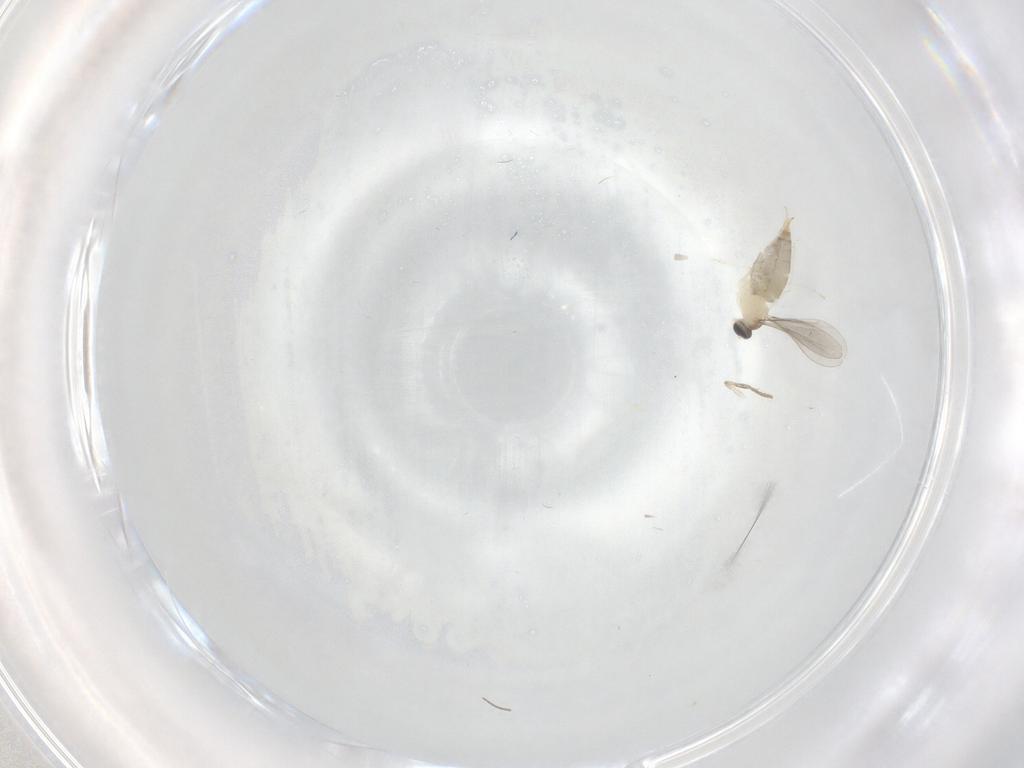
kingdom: Animalia
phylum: Arthropoda
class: Insecta
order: Diptera
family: Cecidomyiidae
